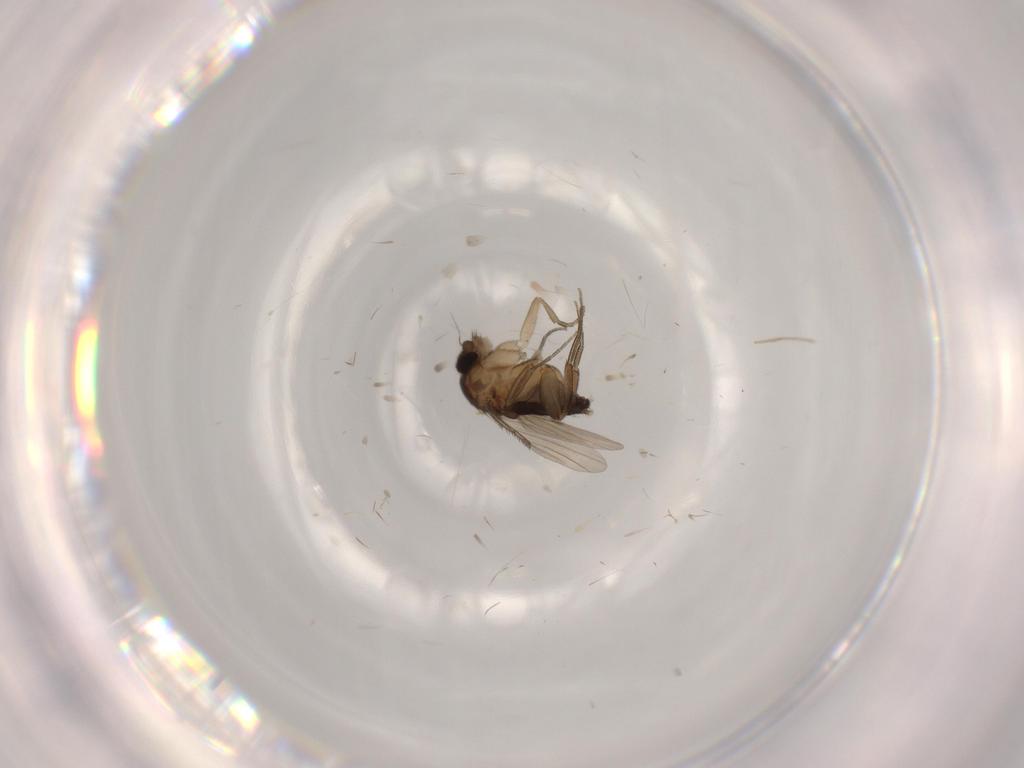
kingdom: Animalia
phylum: Arthropoda
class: Insecta
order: Diptera
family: Phoridae
